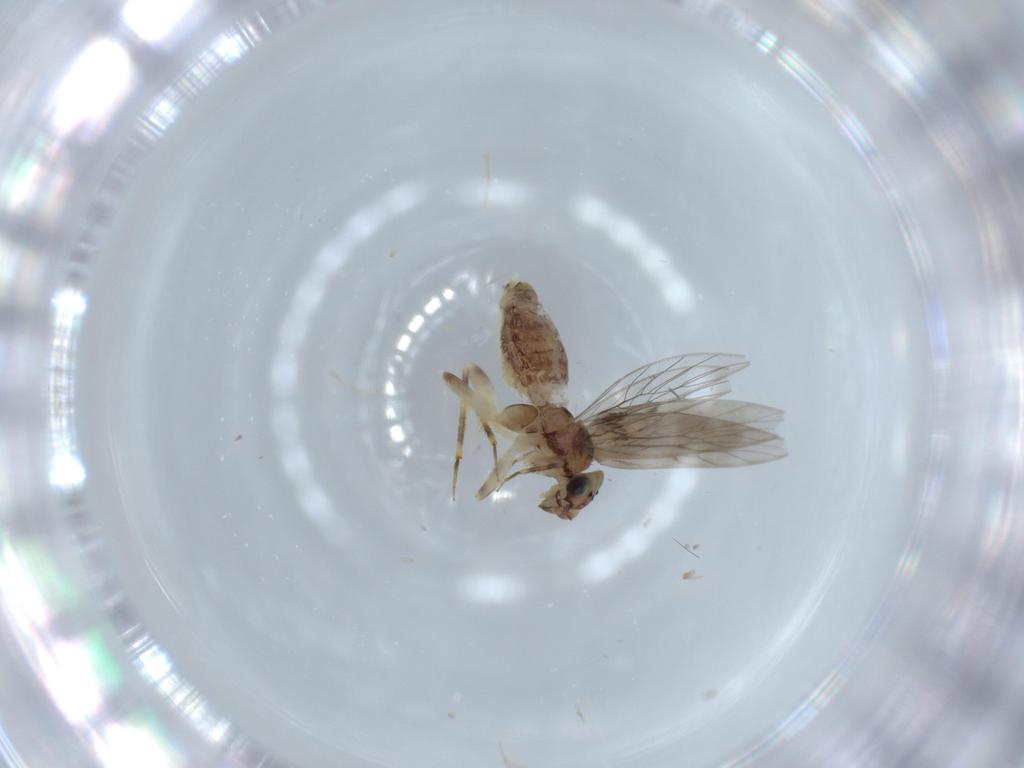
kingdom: Animalia
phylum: Arthropoda
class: Insecta
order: Psocodea
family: Lepidopsocidae
